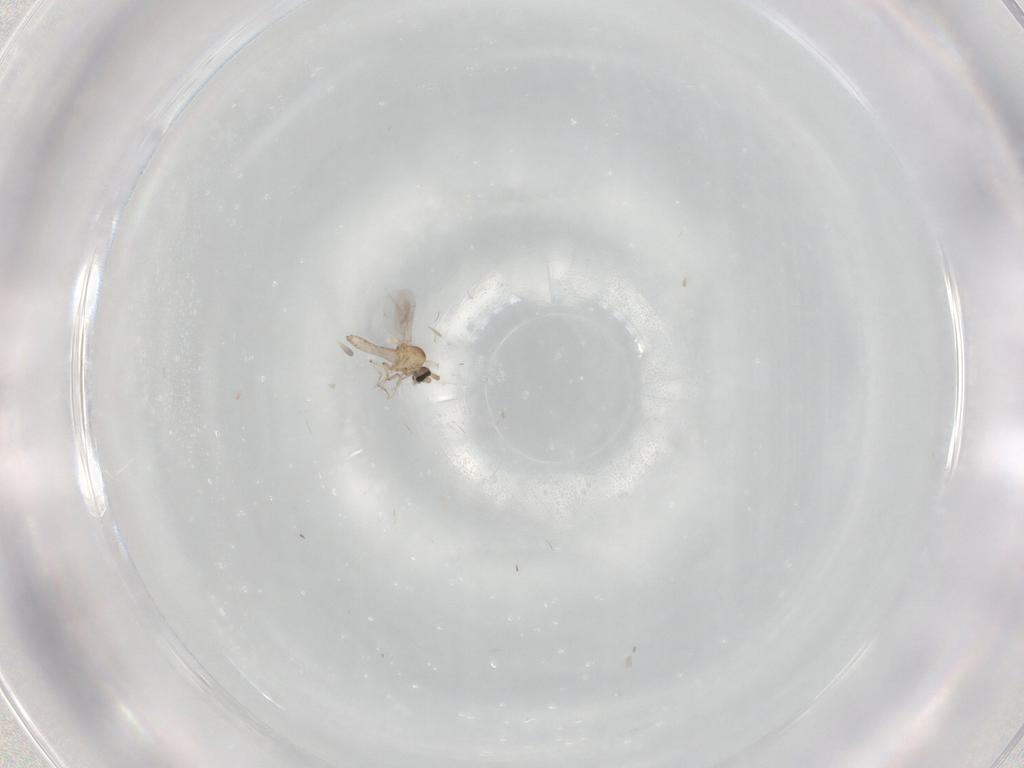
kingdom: Animalia
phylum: Arthropoda
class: Insecta
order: Diptera
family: Ceratopogonidae
